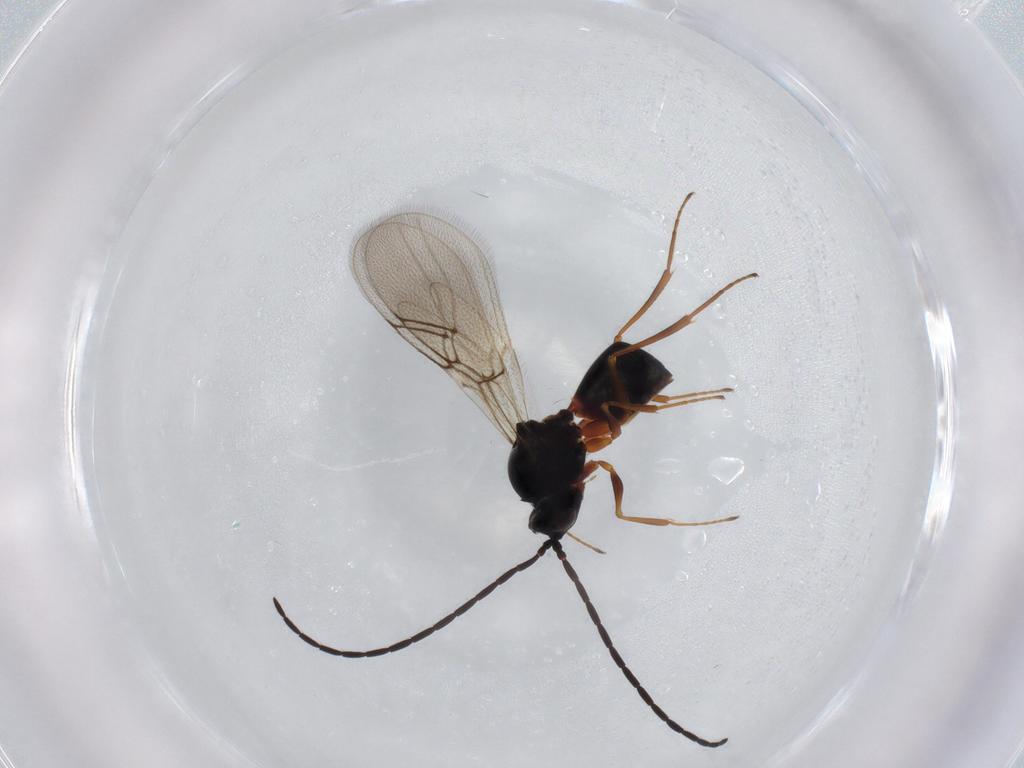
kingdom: Animalia
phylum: Arthropoda
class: Insecta
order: Hymenoptera
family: Figitidae
